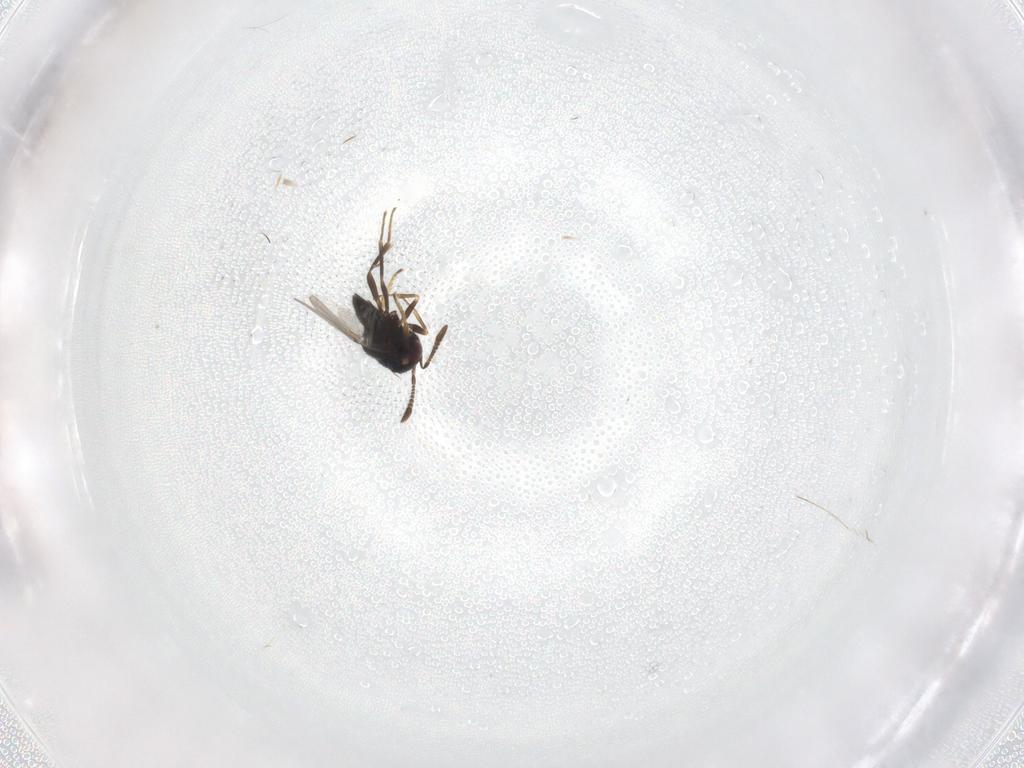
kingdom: Animalia
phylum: Arthropoda
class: Insecta
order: Hymenoptera
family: Encyrtidae
